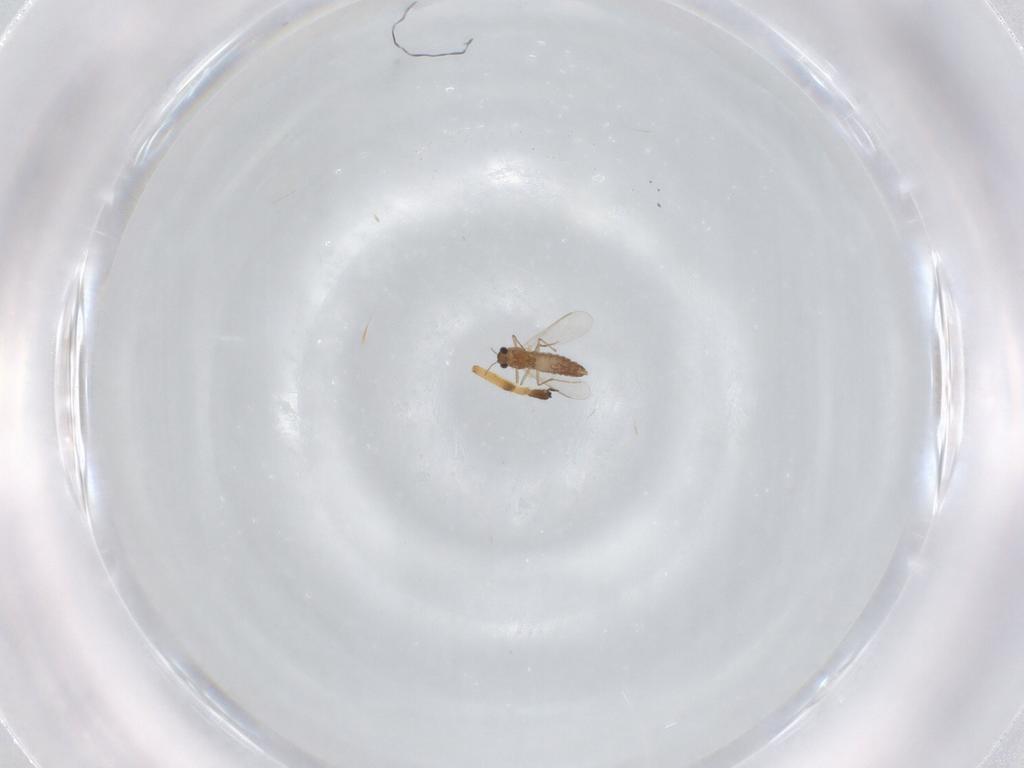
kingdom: Animalia
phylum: Arthropoda
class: Insecta
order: Diptera
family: Chironomidae
